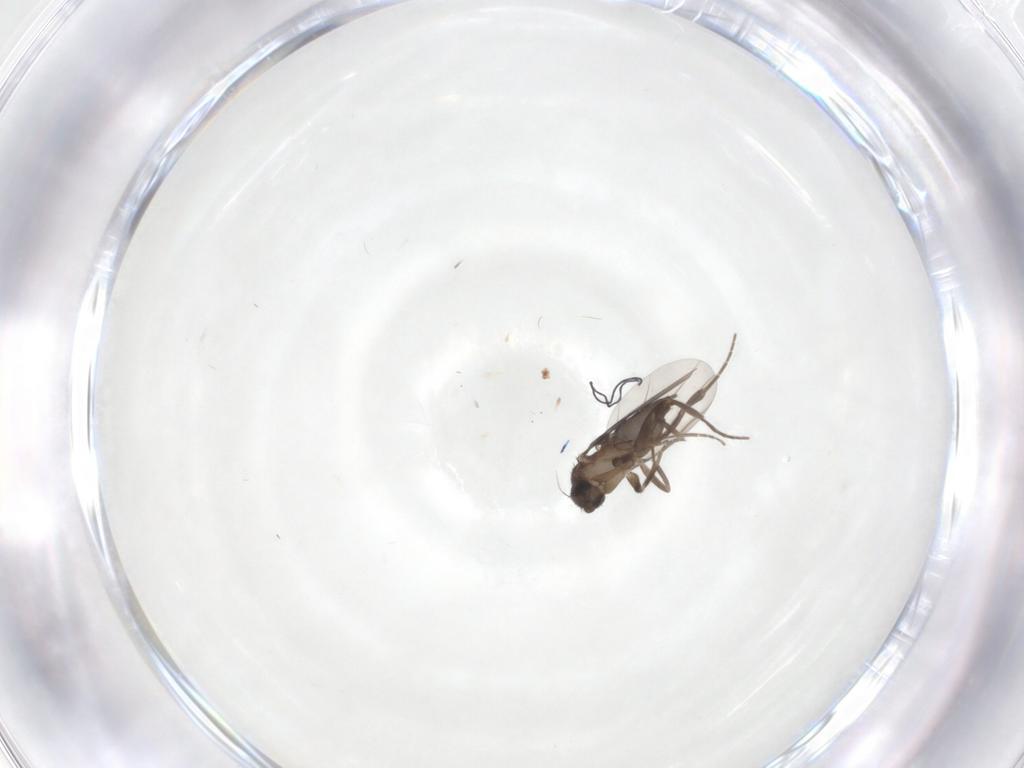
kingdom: Animalia
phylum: Arthropoda
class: Insecta
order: Diptera
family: Phoridae
